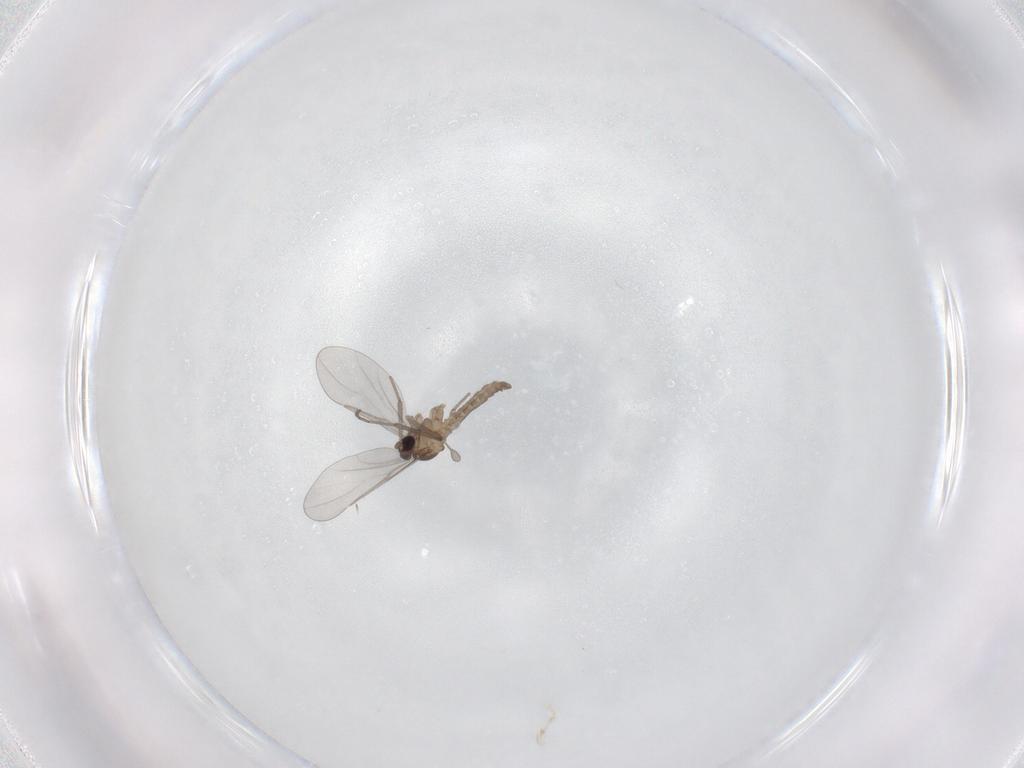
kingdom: Animalia
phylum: Arthropoda
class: Insecta
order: Diptera
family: Cecidomyiidae
